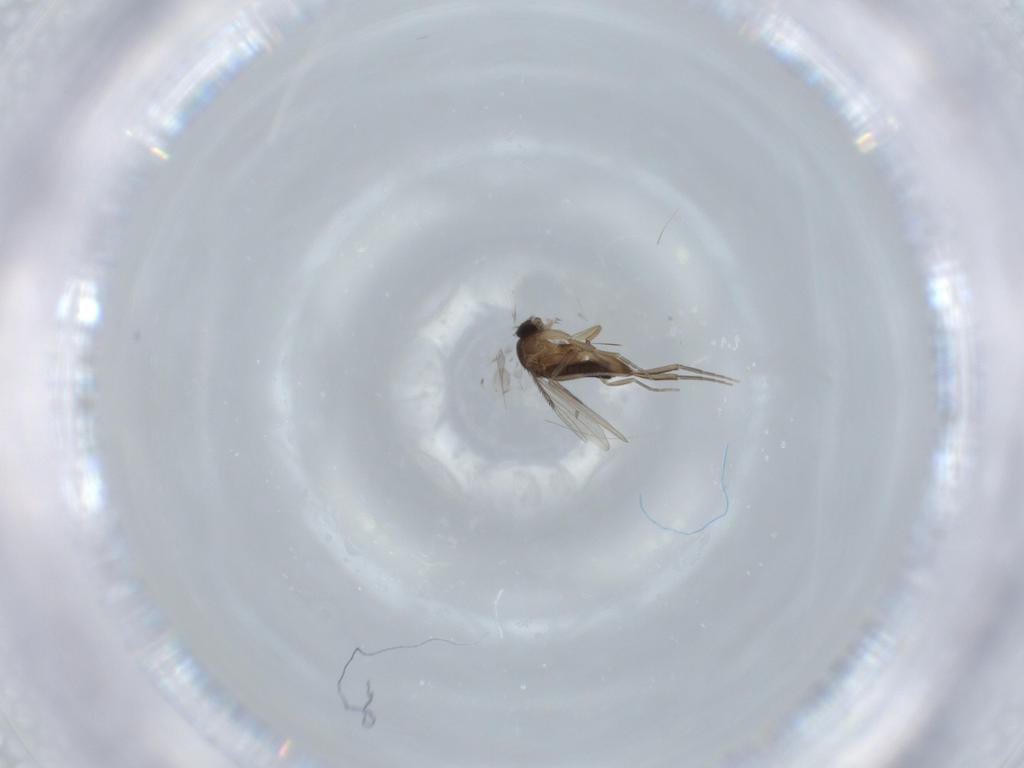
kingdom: Animalia
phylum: Arthropoda
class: Insecta
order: Diptera
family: Phoridae
